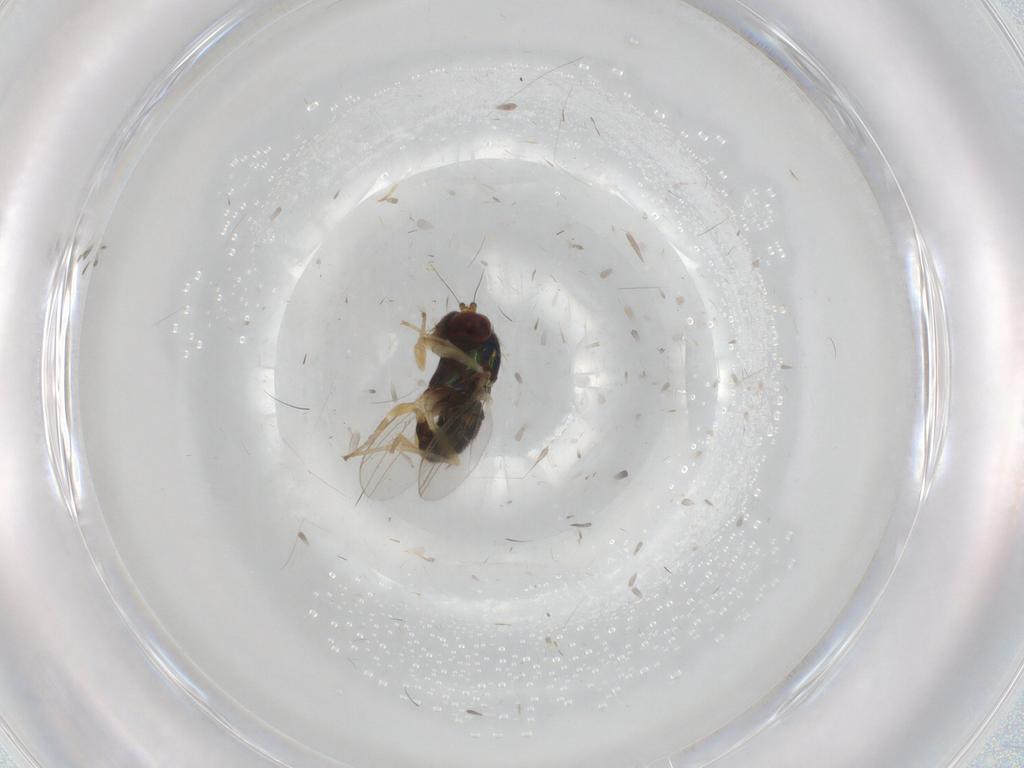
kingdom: Animalia
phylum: Arthropoda
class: Insecta
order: Diptera
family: Dolichopodidae
